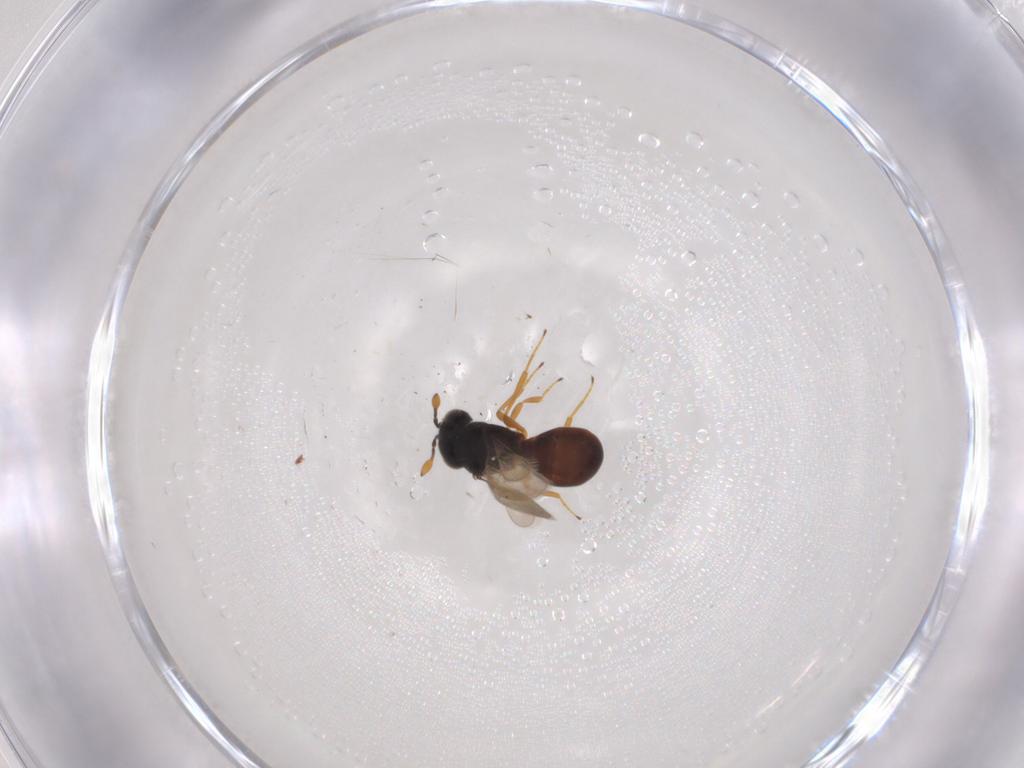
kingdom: Animalia
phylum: Arthropoda
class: Insecta
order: Hymenoptera
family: Scelionidae
